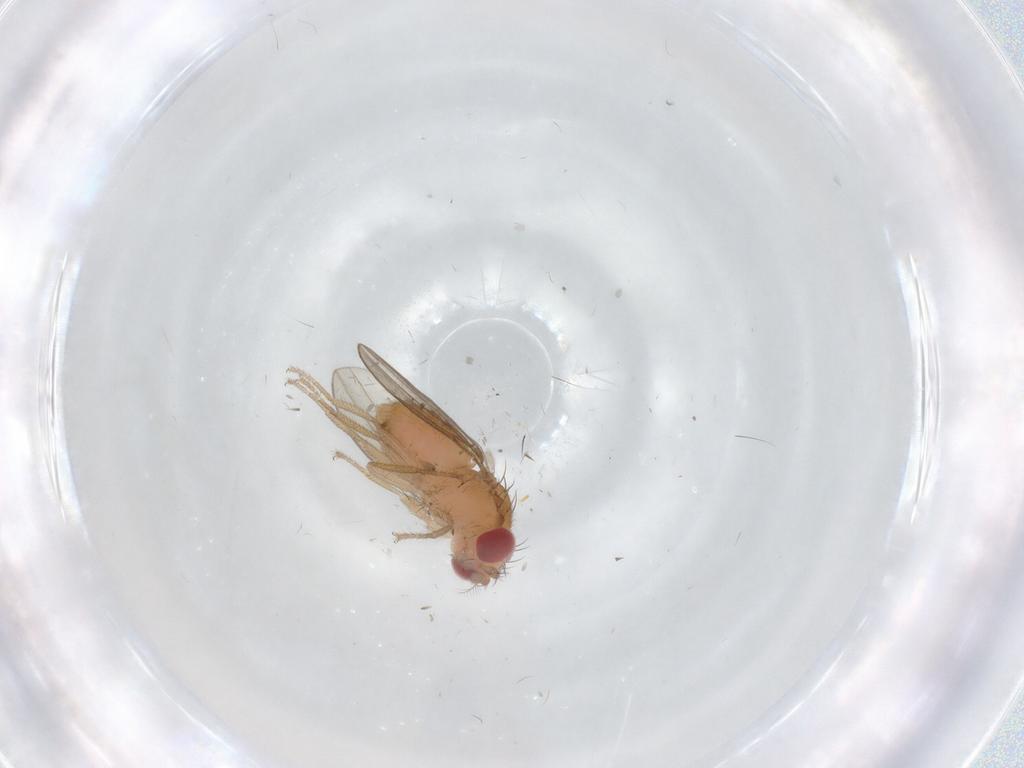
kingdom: Animalia
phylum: Arthropoda
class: Insecta
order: Diptera
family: Drosophilidae
